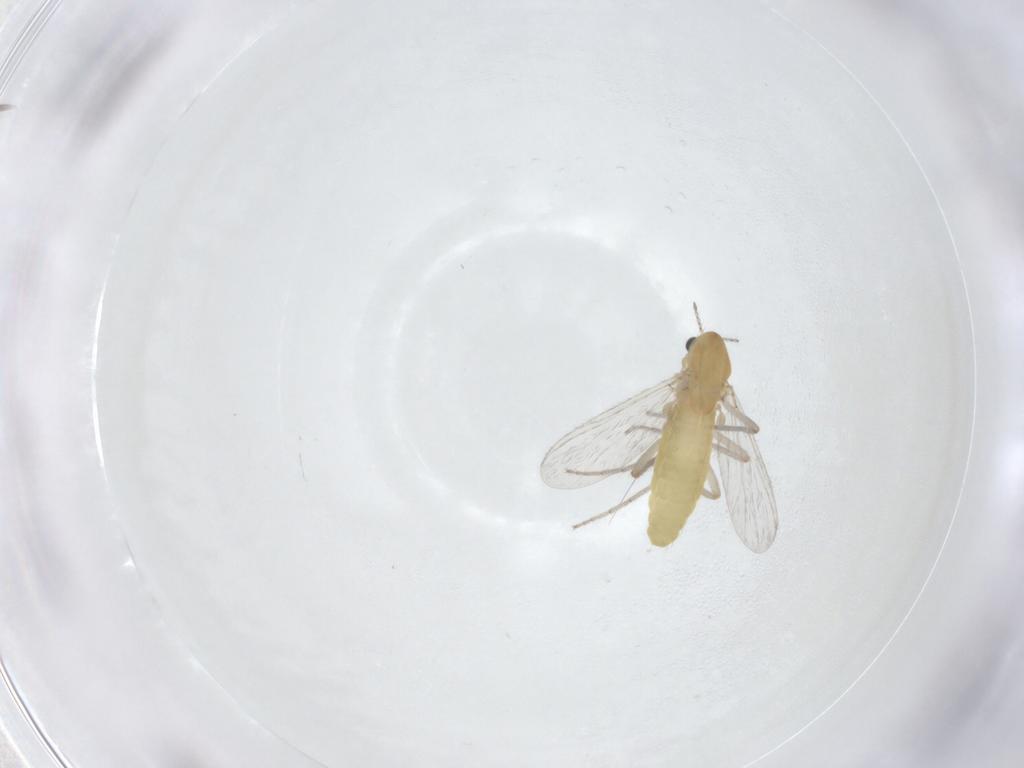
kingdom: Animalia
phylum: Arthropoda
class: Insecta
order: Diptera
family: Chironomidae
